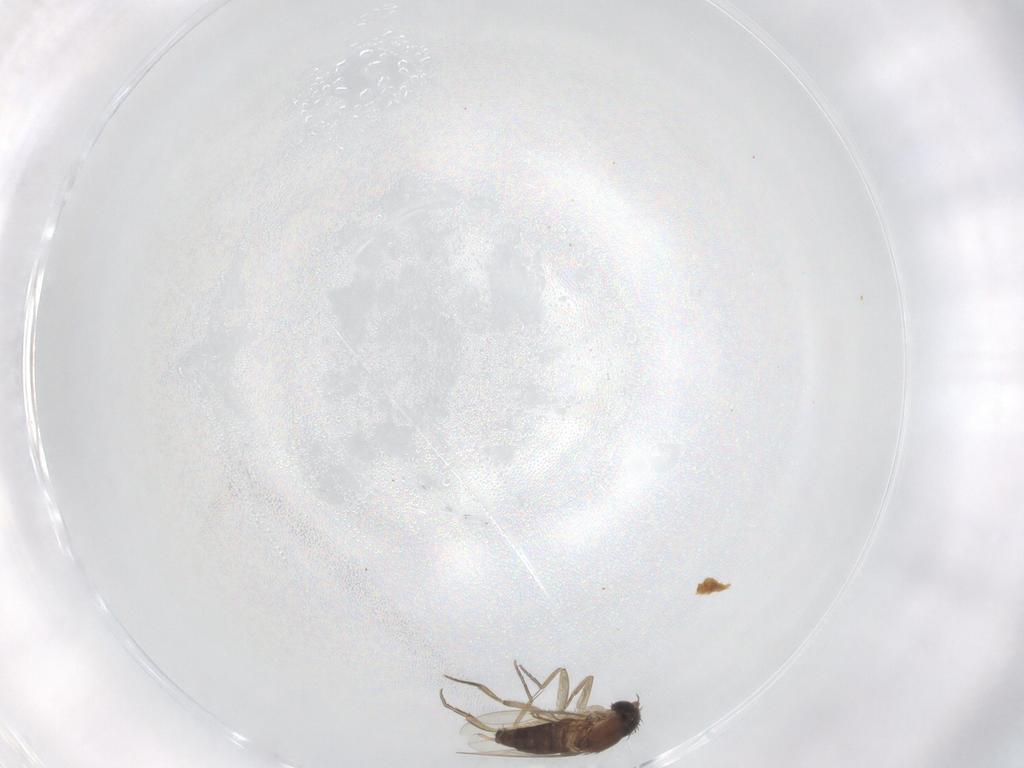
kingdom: Animalia
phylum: Arthropoda
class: Insecta
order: Diptera
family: Phoridae
